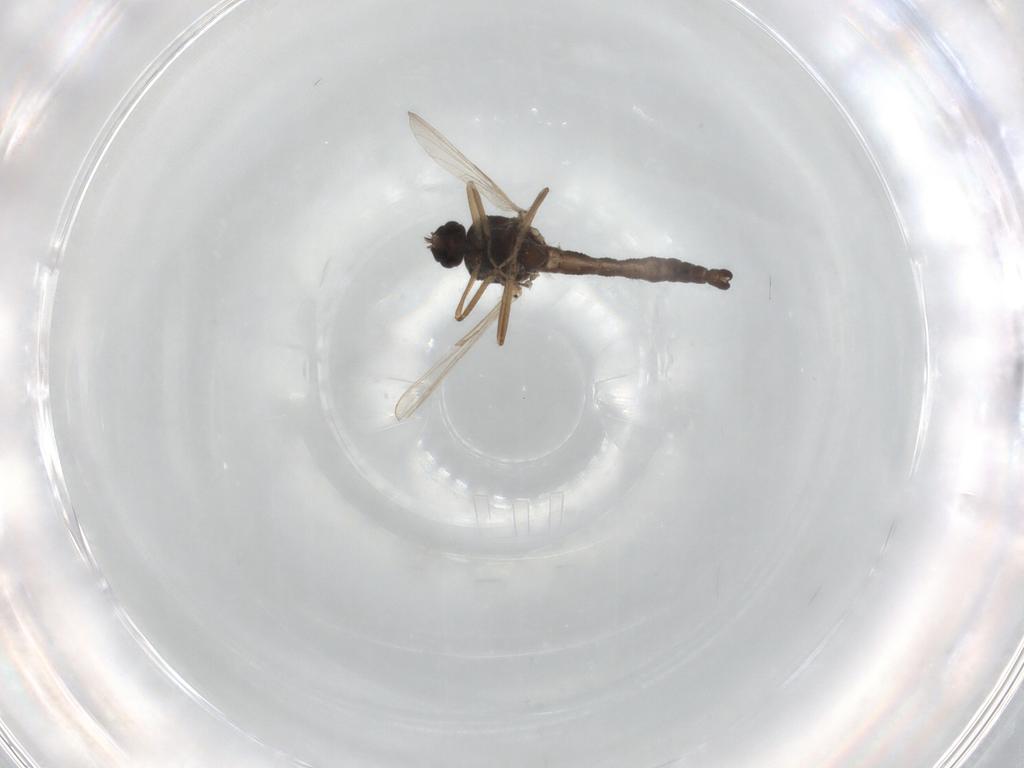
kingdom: Animalia
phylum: Arthropoda
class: Insecta
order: Diptera
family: Ceratopogonidae
